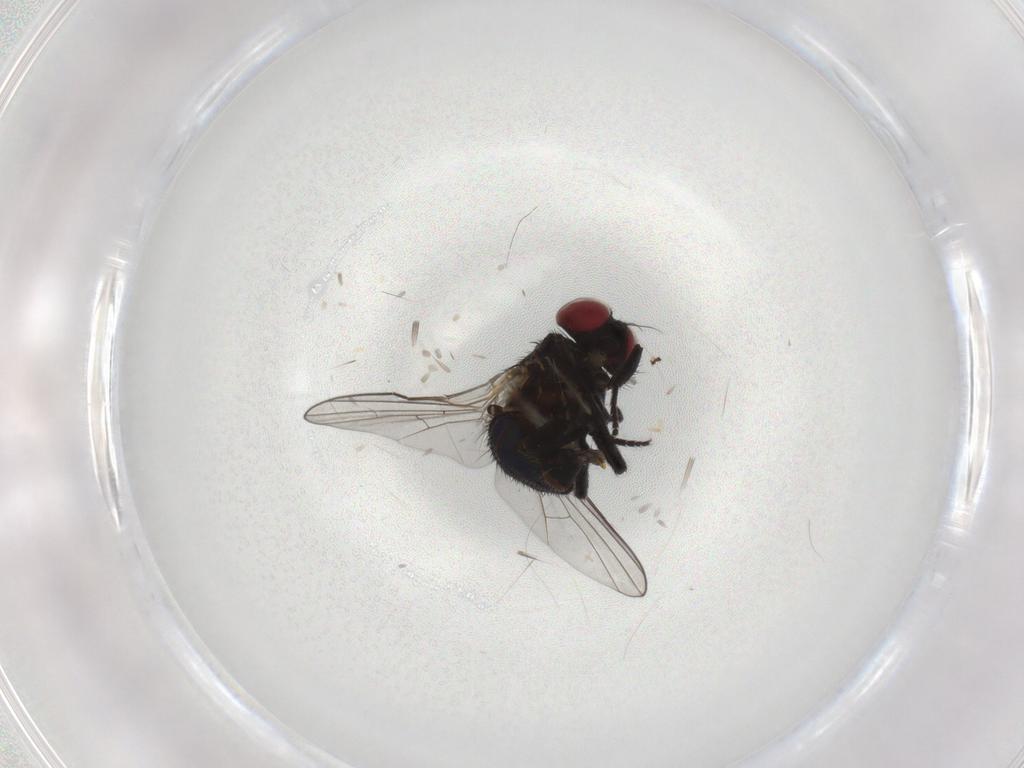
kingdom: Animalia
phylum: Arthropoda
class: Insecta
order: Diptera
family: Agromyzidae
